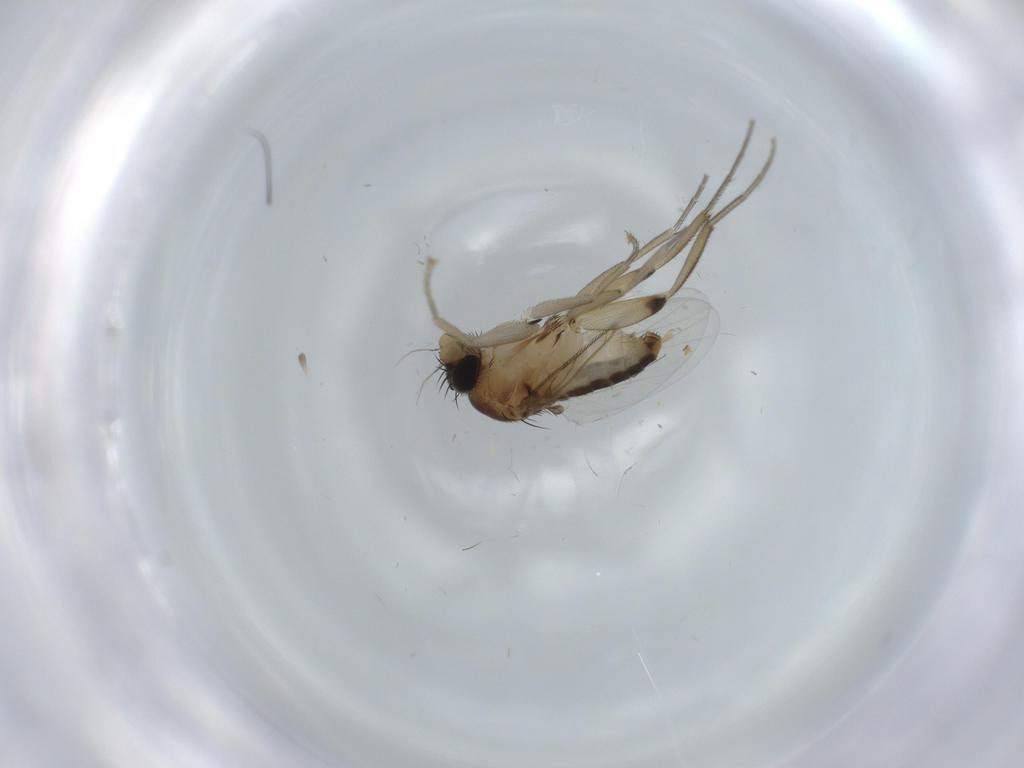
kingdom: Animalia
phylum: Arthropoda
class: Insecta
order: Diptera
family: Phoridae
